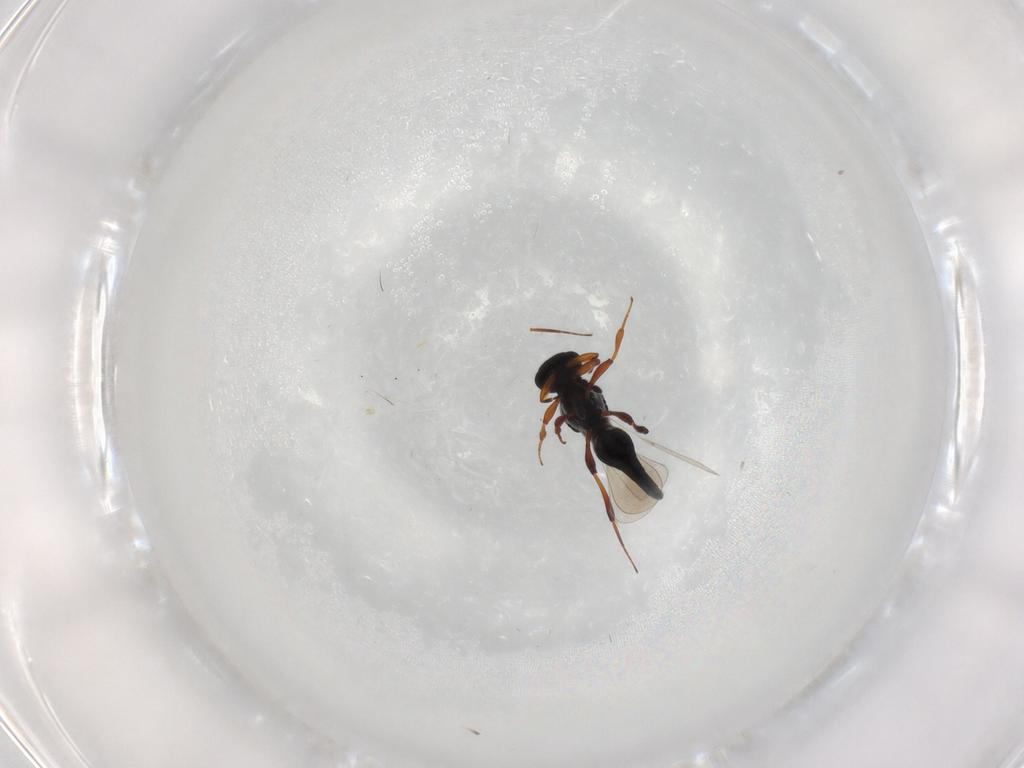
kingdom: Animalia
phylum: Arthropoda
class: Insecta
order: Hymenoptera
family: Platygastridae
